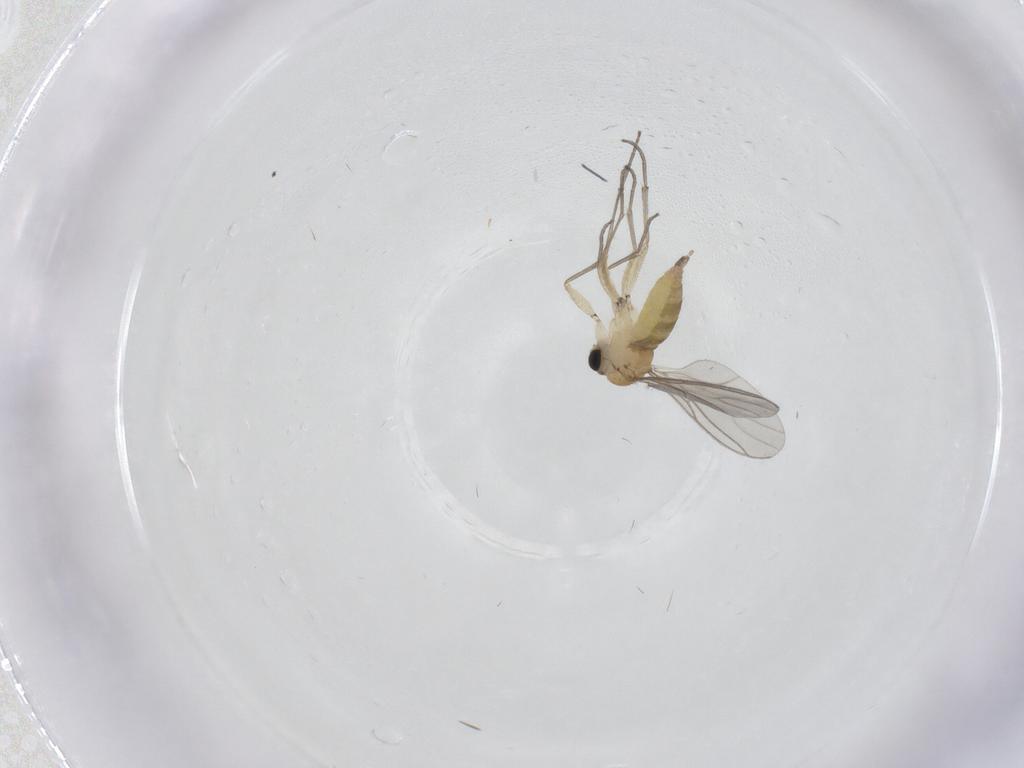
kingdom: Animalia
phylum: Arthropoda
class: Insecta
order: Diptera
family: Sciaridae
